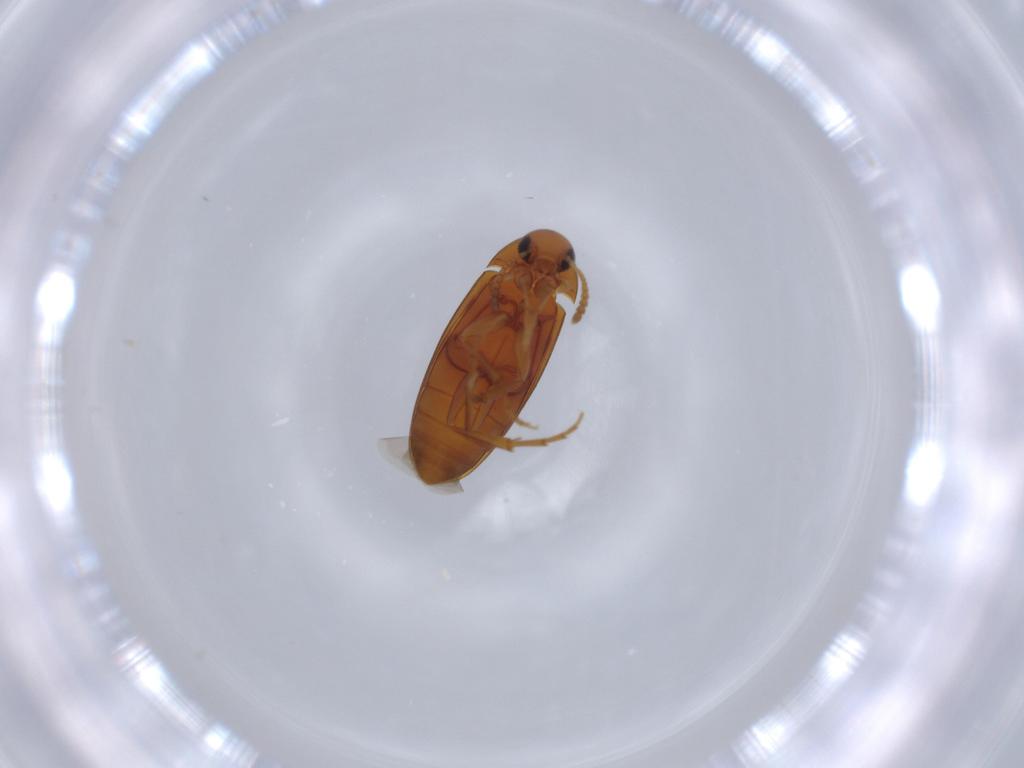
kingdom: Animalia
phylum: Arthropoda
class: Insecta
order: Coleoptera
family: Scraptiidae
